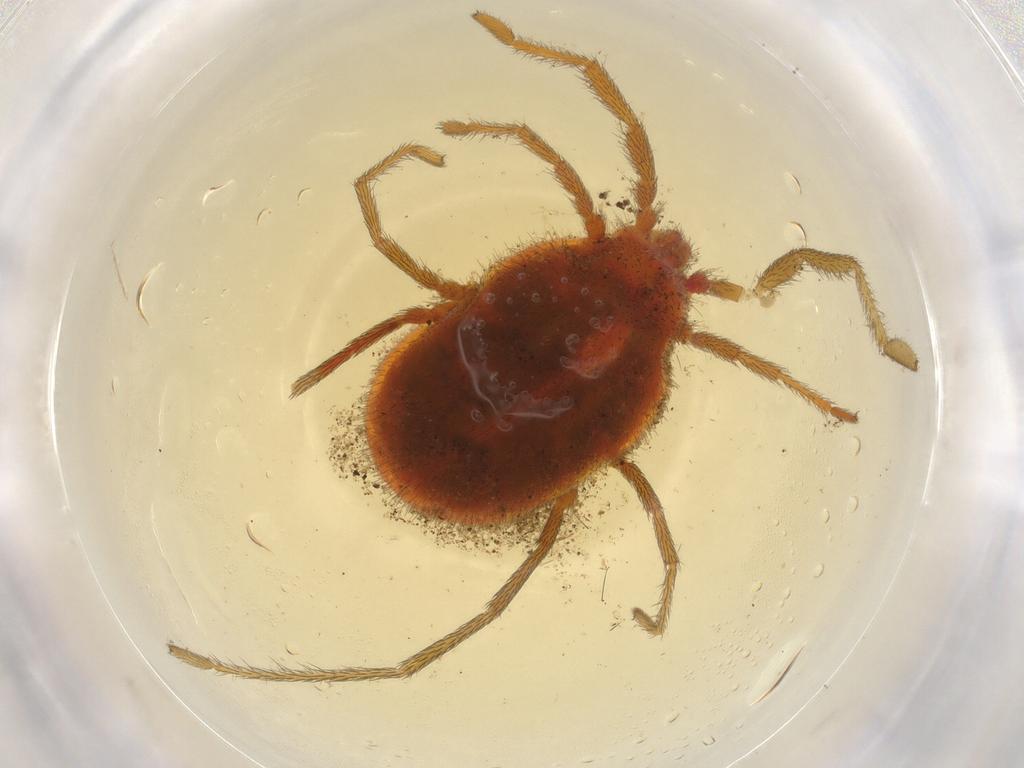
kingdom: Animalia
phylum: Arthropoda
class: Arachnida
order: Trombidiformes
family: Erythraeidae
